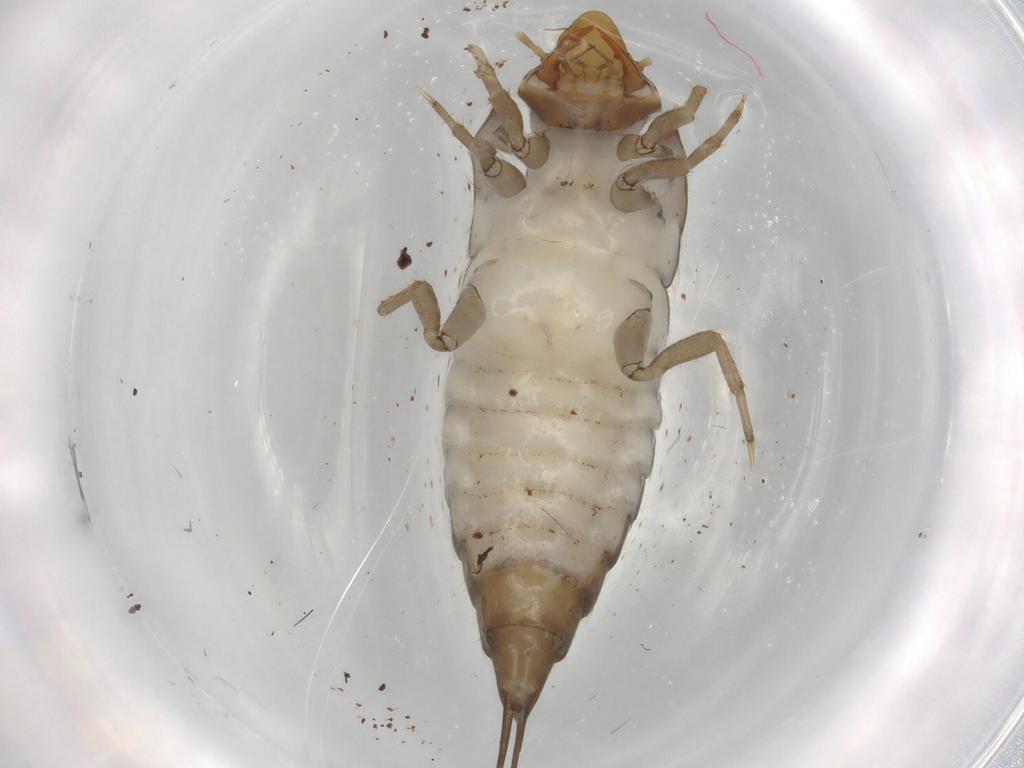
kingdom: Animalia
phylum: Arthropoda
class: Insecta
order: Coleoptera
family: Dytiscidae
